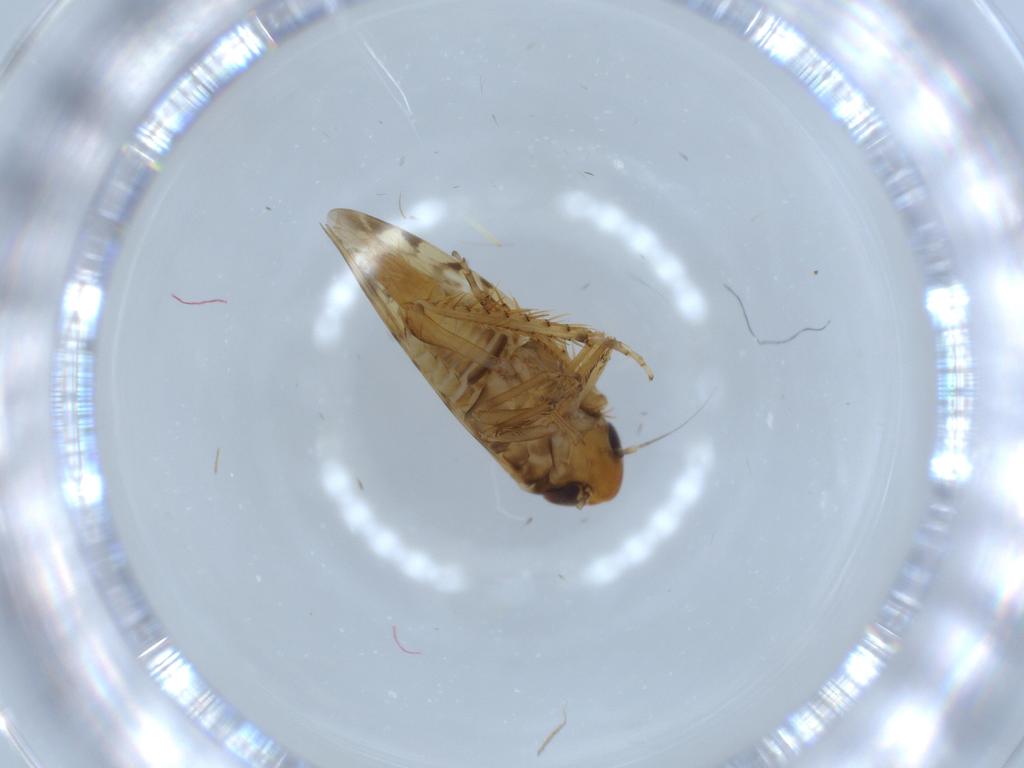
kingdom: Animalia
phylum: Arthropoda
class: Insecta
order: Hemiptera
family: Cicadellidae
